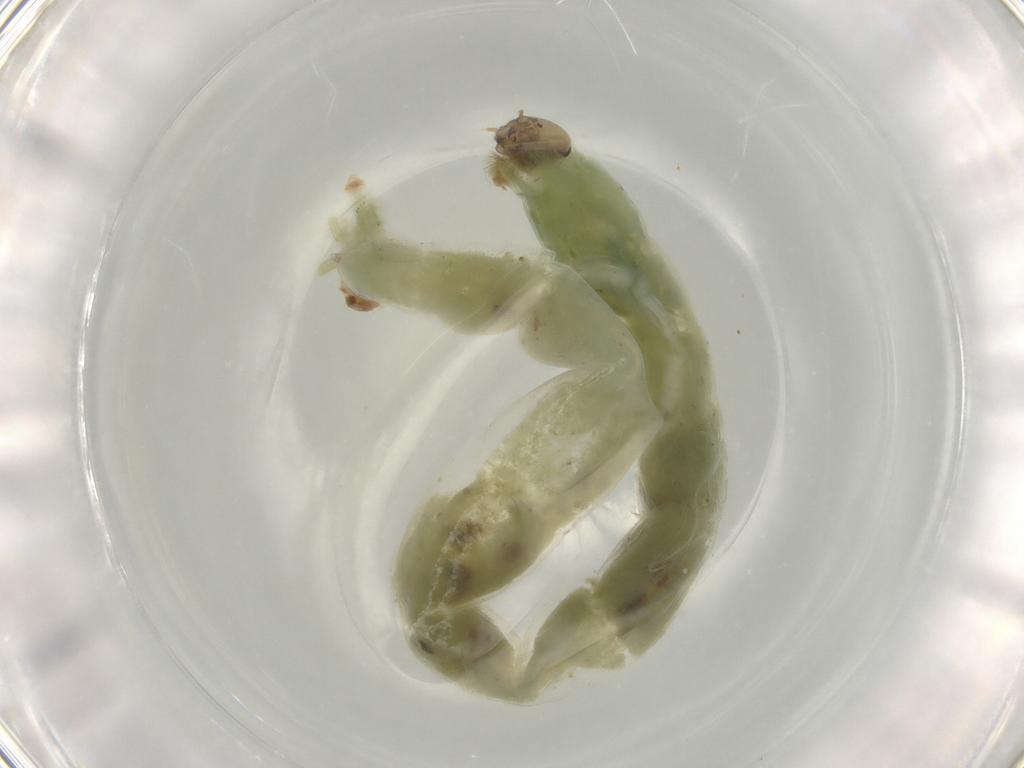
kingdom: Animalia
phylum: Arthropoda
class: Insecta
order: Diptera
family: Chironomidae
